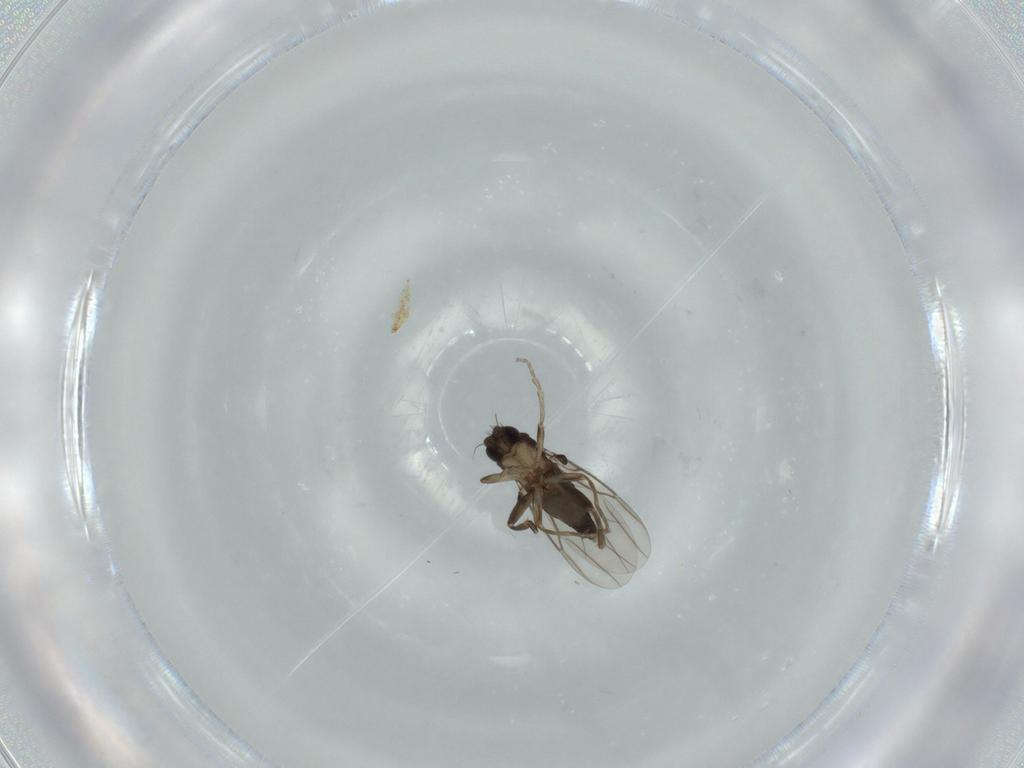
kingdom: Animalia
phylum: Arthropoda
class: Insecta
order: Diptera
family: Phoridae
